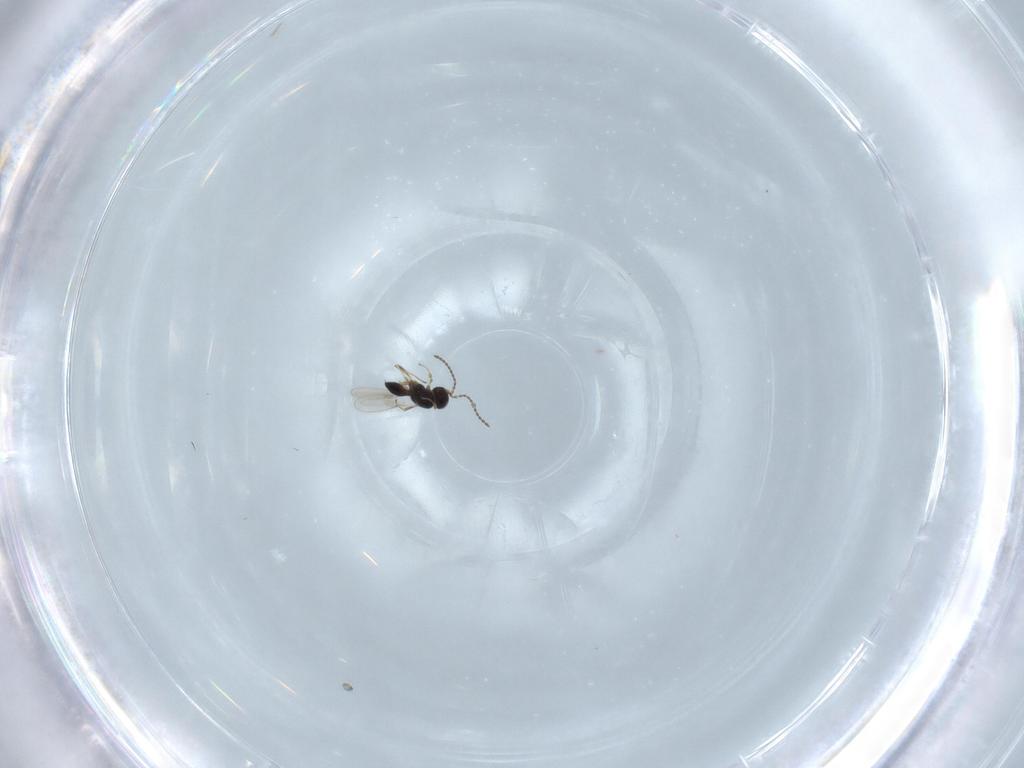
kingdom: Animalia
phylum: Arthropoda
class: Insecta
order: Hymenoptera
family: Scelionidae
